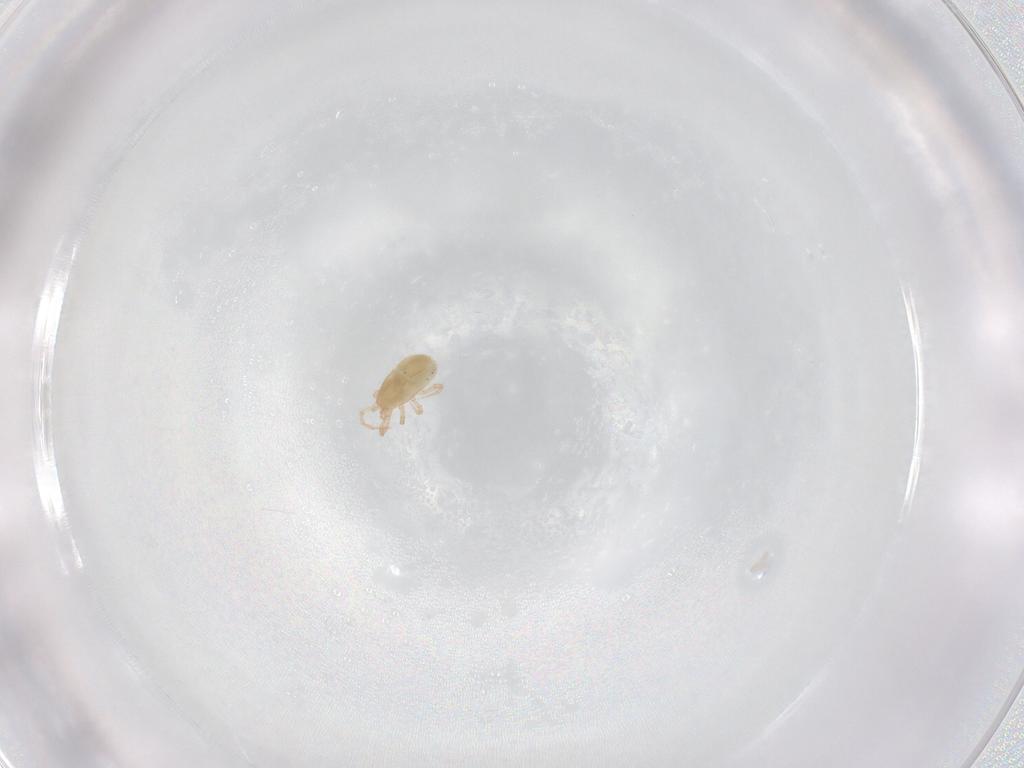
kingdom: Animalia
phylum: Arthropoda
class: Arachnida
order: Mesostigmata
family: Ascidae
